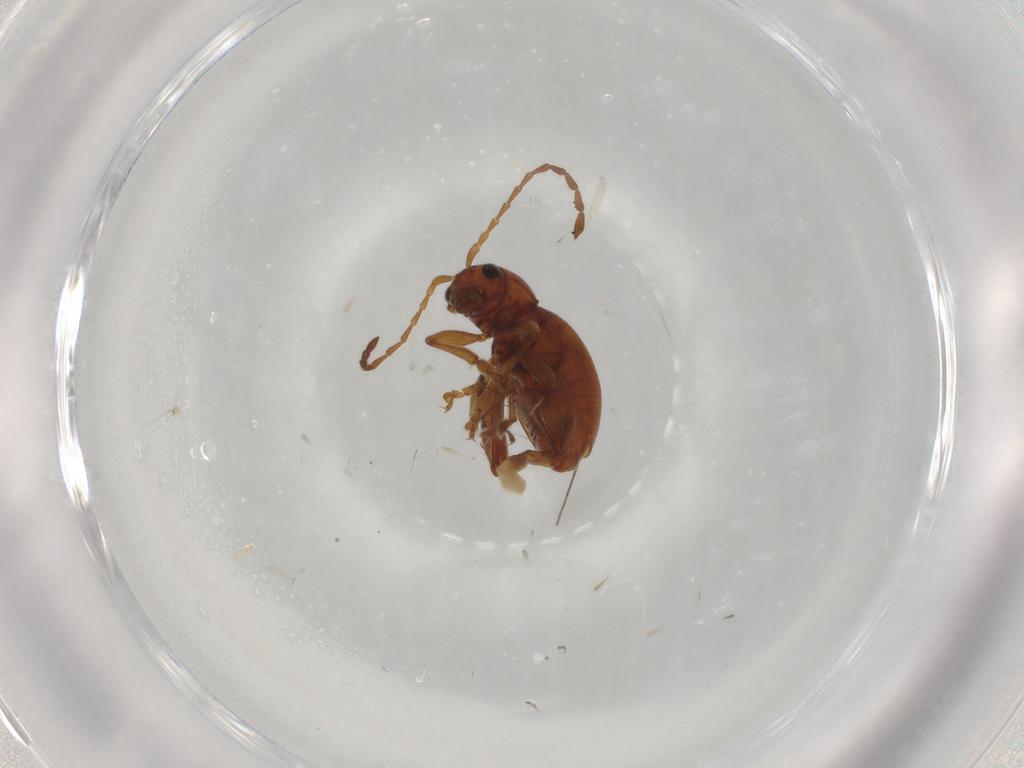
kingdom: Animalia
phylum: Arthropoda
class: Insecta
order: Coleoptera
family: Chrysomelidae
